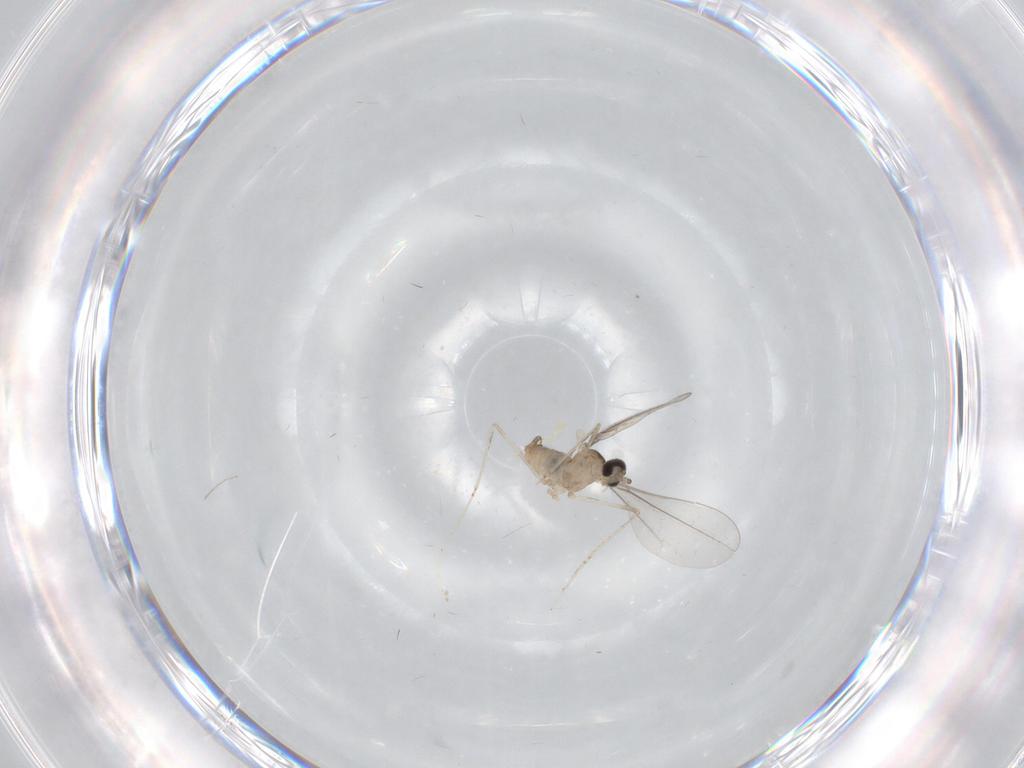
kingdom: Animalia
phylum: Arthropoda
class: Insecta
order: Diptera
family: Cecidomyiidae
